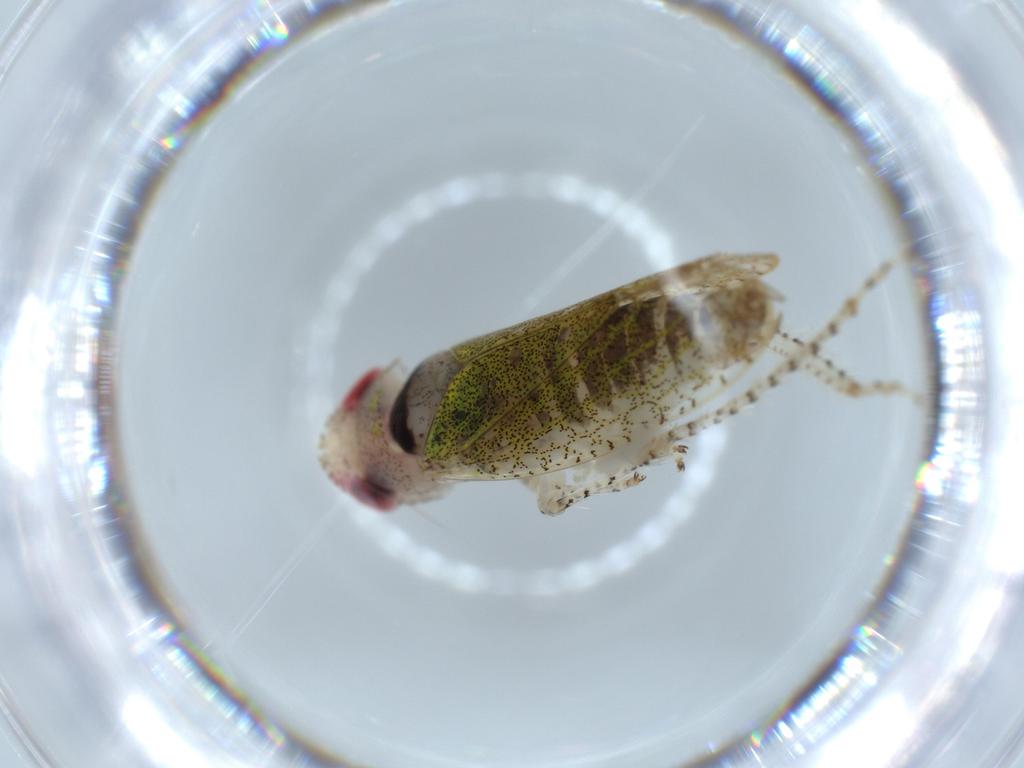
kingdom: Animalia
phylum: Arthropoda
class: Insecta
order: Hemiptera
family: Cicadellidae
